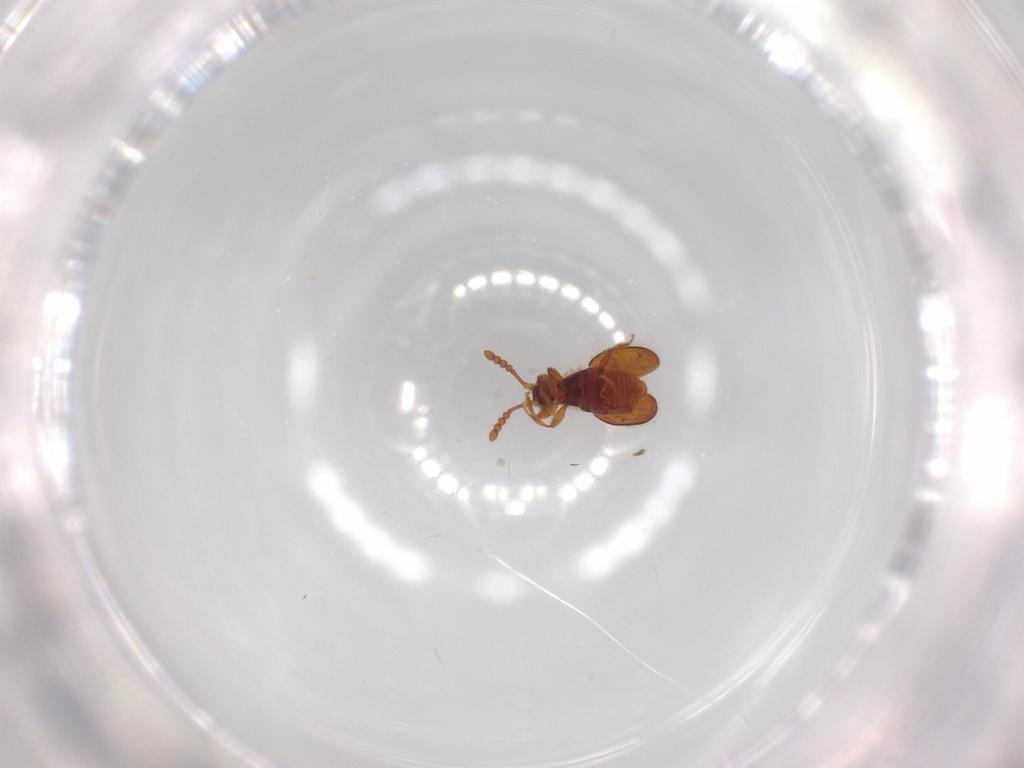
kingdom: Animalia
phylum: Arthropoda
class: Insecta
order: Coleoptera
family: Staphylinidae
